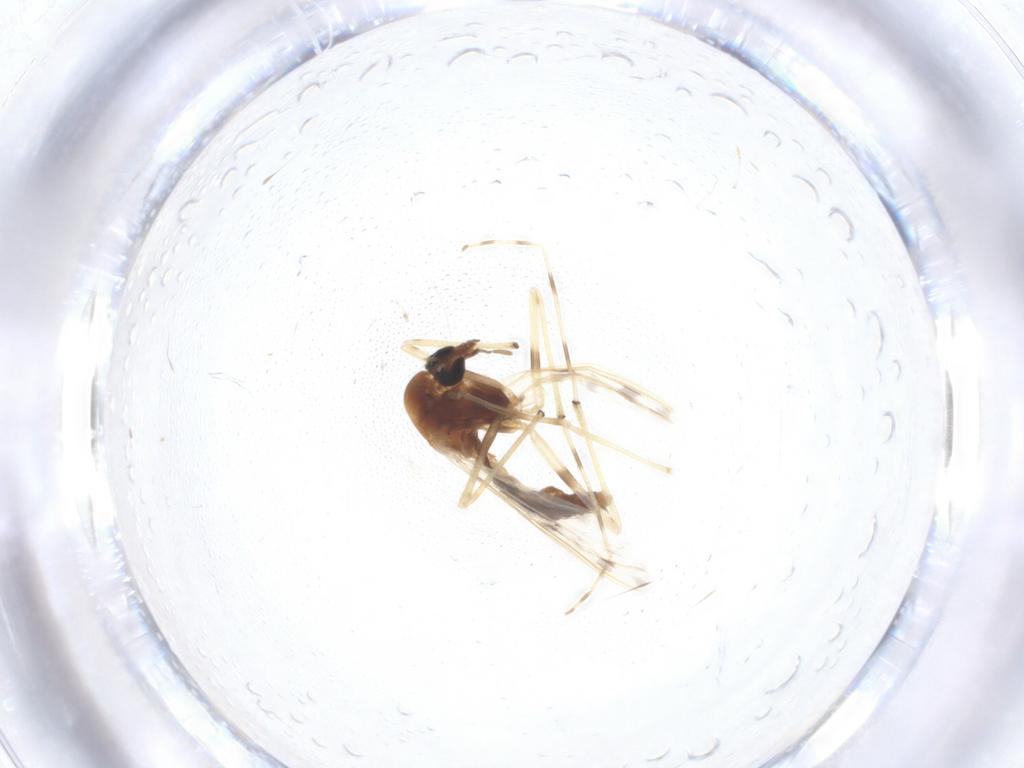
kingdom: Animalia
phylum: Arthropoda
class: Insecta
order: Diptera
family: Chironomidae
